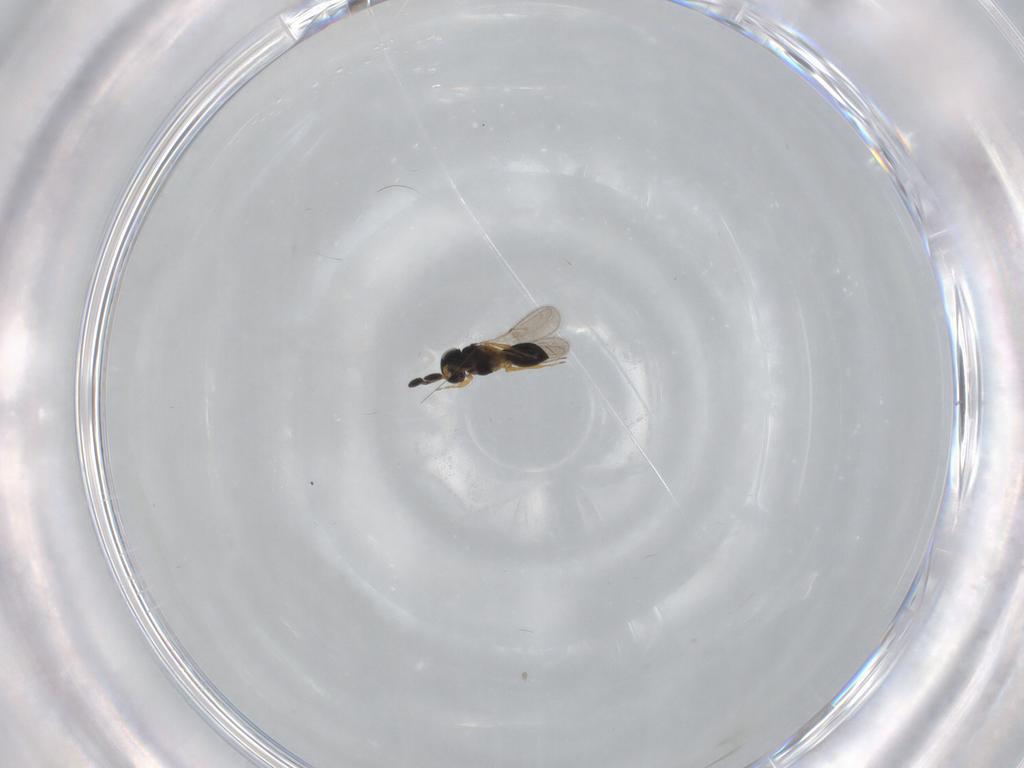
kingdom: Animalia
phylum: Arthropoda
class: Insecta
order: Hymenoptera
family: Scelionidae
